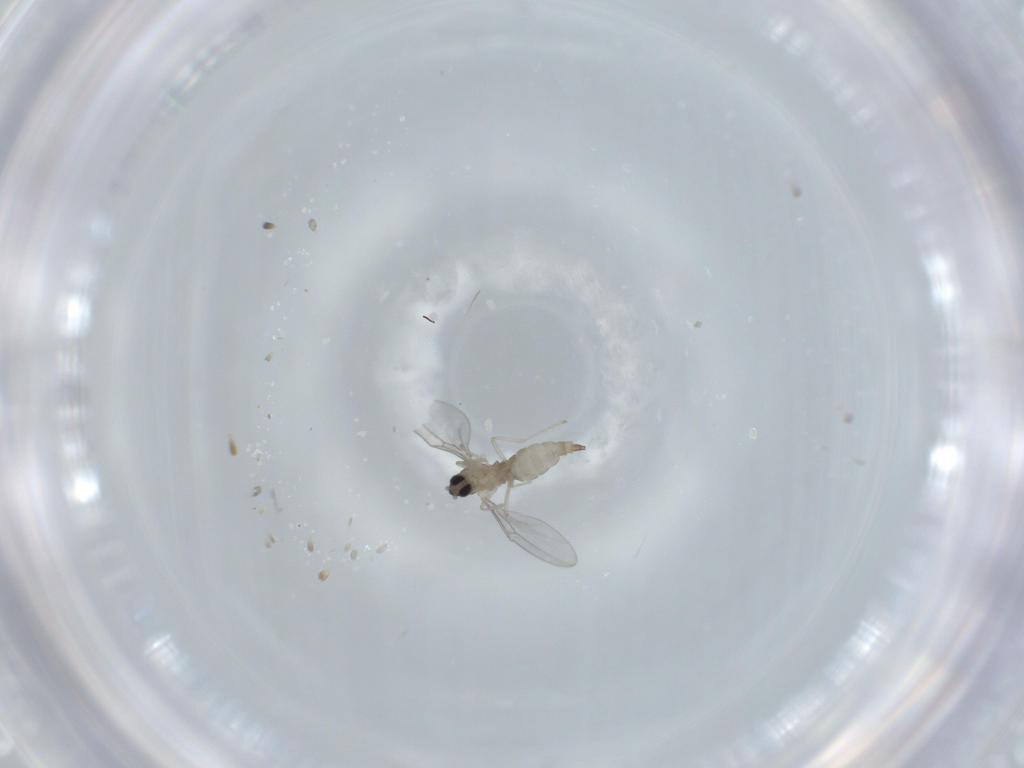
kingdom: Animalia
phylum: Arthropoda
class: Insecta
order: Diptera
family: Cecidomyiidae
